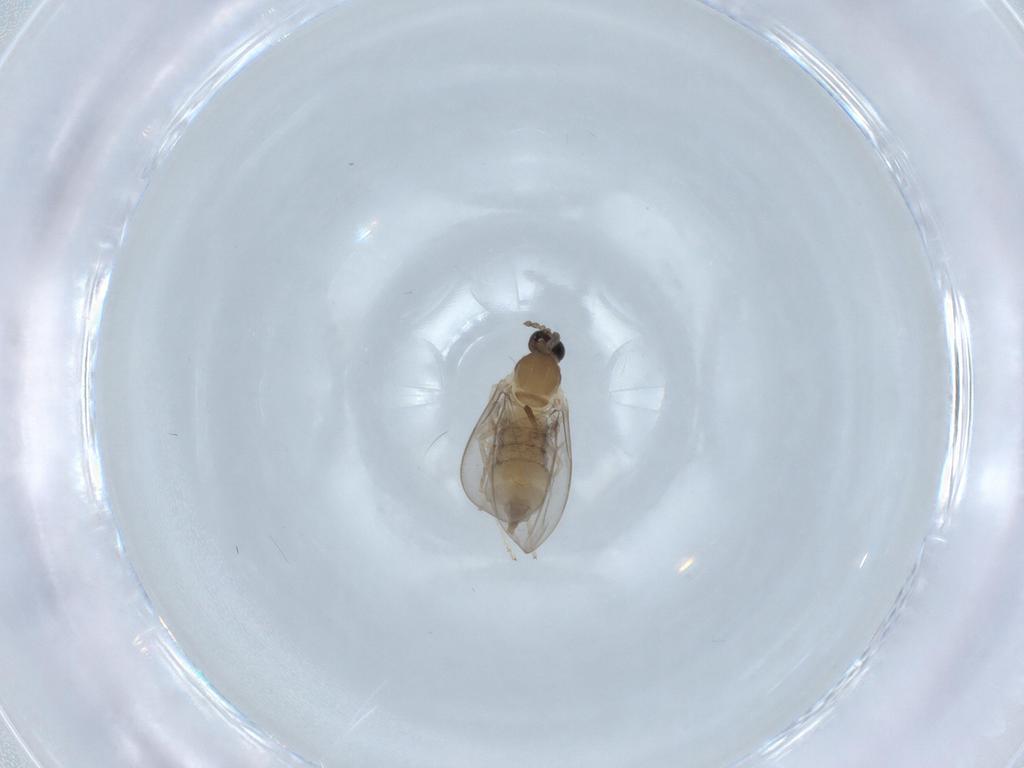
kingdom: Animalia
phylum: Arthropoda
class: Insecta
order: Diptera
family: Cecidomyiidae
